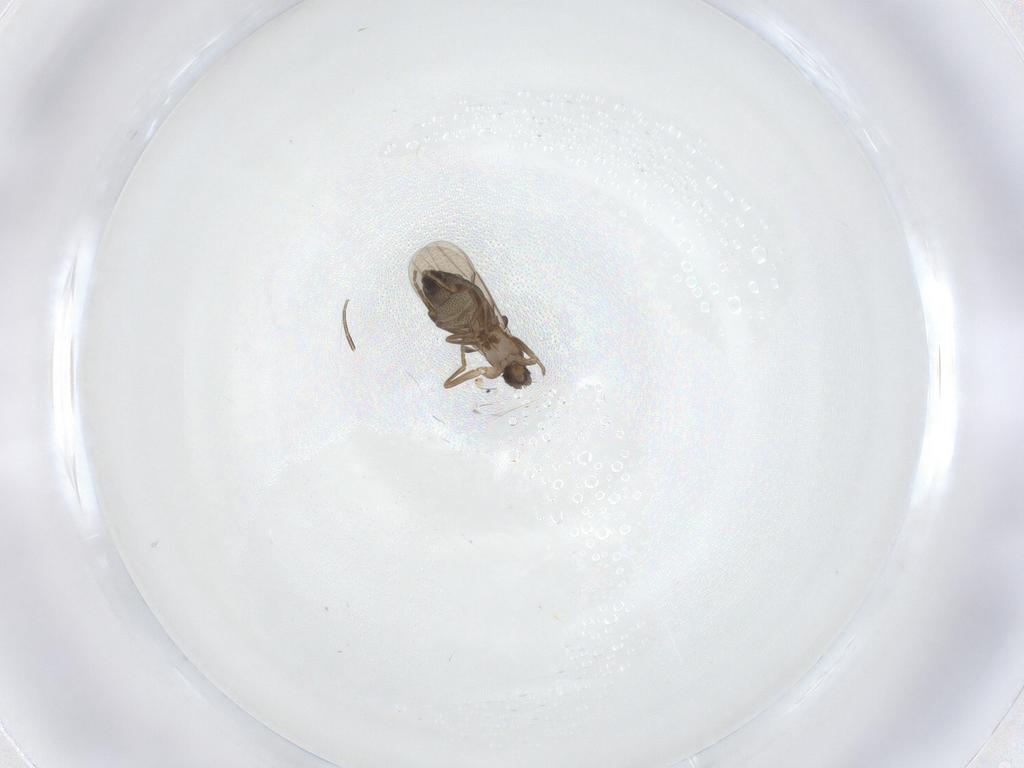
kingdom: Animalia
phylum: Arthropoda
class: Insecta
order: Diptera
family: Phoridae
